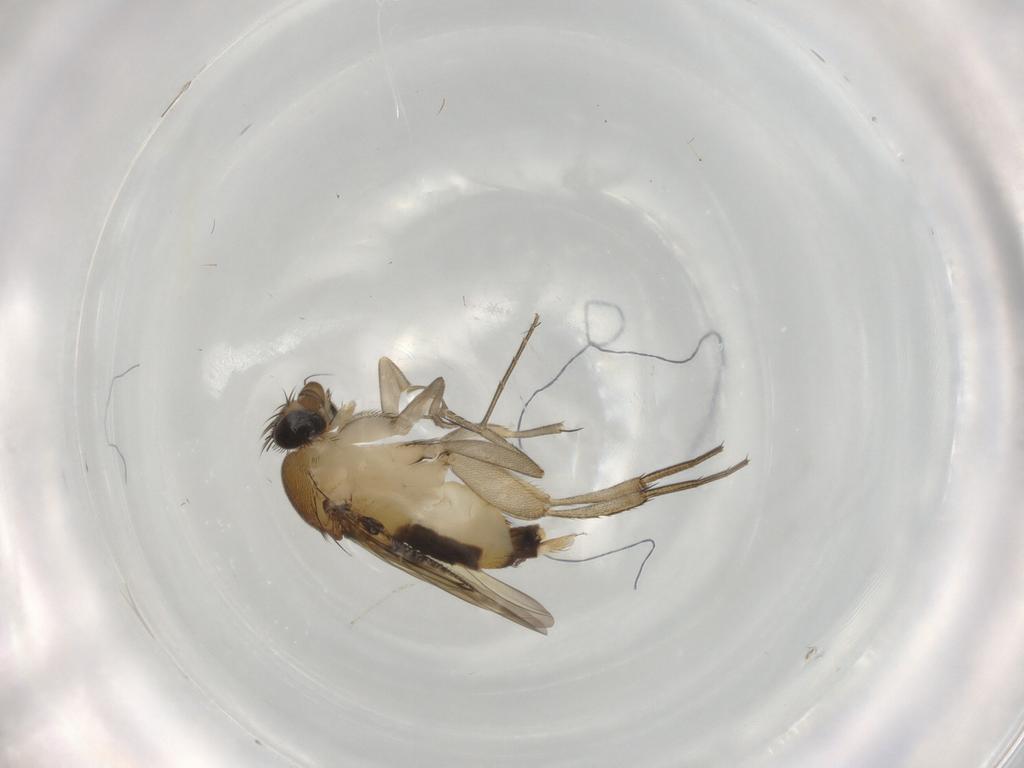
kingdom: Animalia
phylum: Arthropoda
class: Insecta
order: Diptera
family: Phoridae
